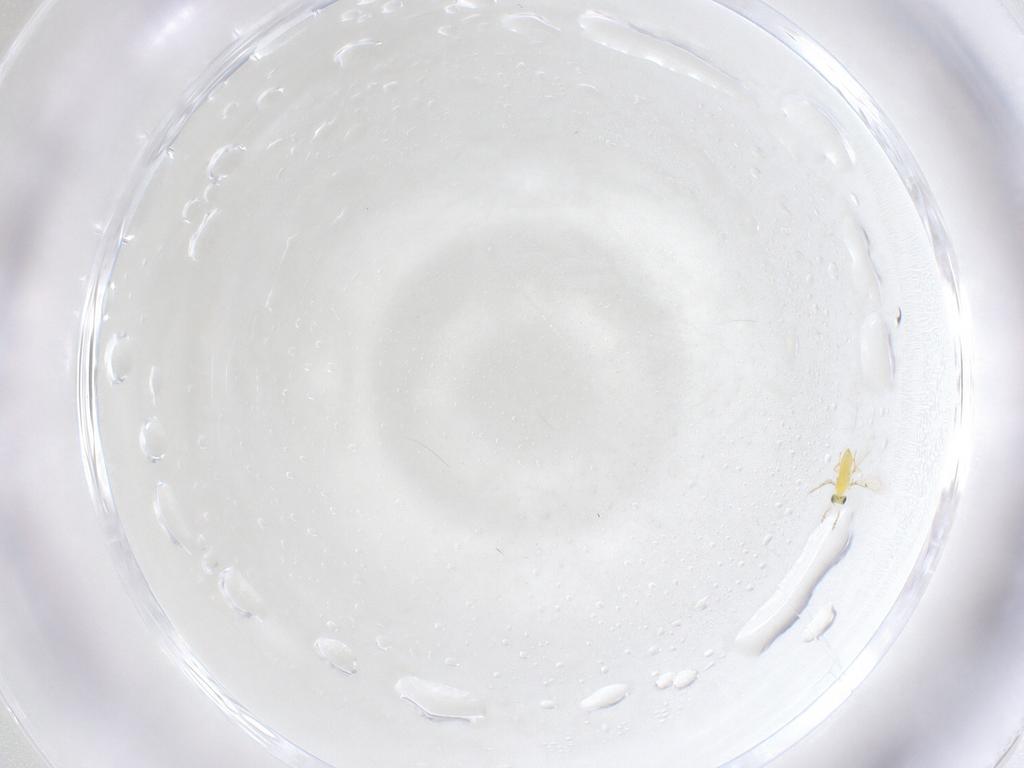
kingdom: Animalia
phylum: Arthropoda
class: Insecta
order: Hymenoptera
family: Trichogrammatidae
